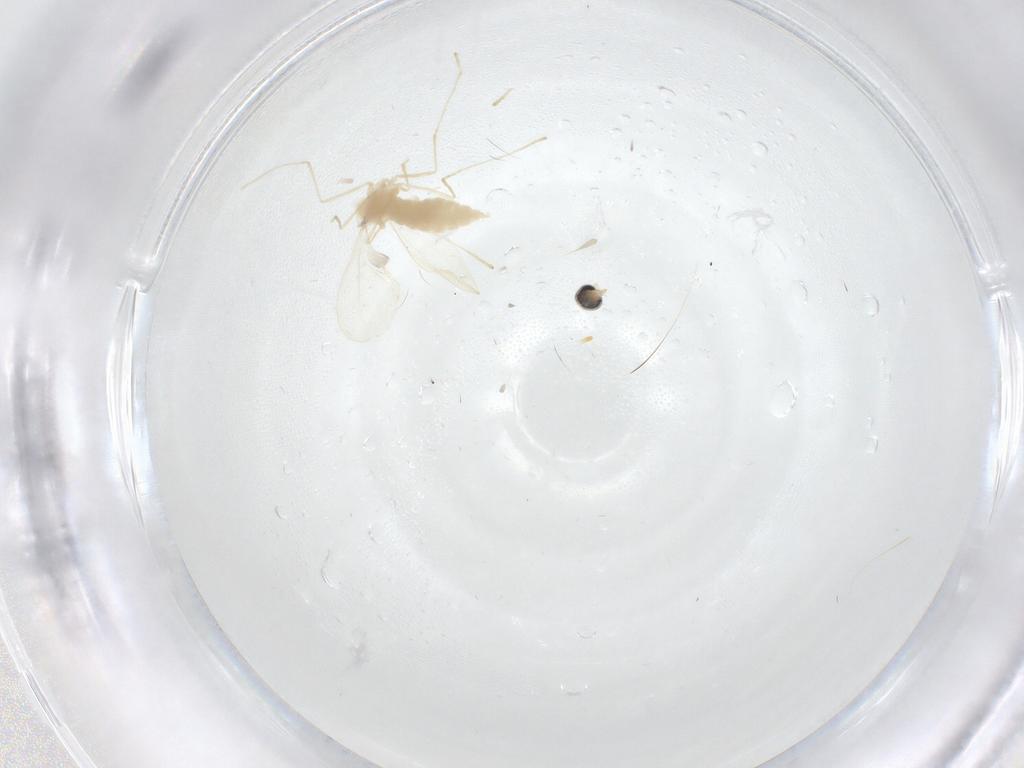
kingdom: Animalia
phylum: Arthropoda
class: Insecta
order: Diptera
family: Cecidomyiidae
